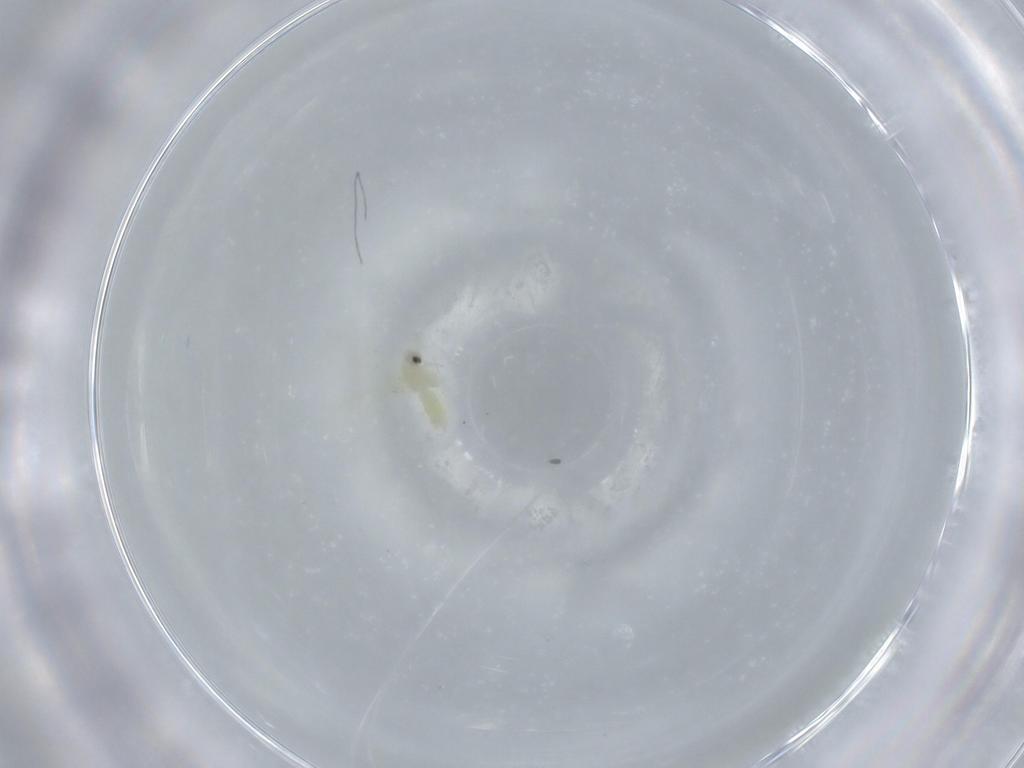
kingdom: Animalia
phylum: Arthropoda
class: Insecta
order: Hemiptera
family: Aleyrodidae
